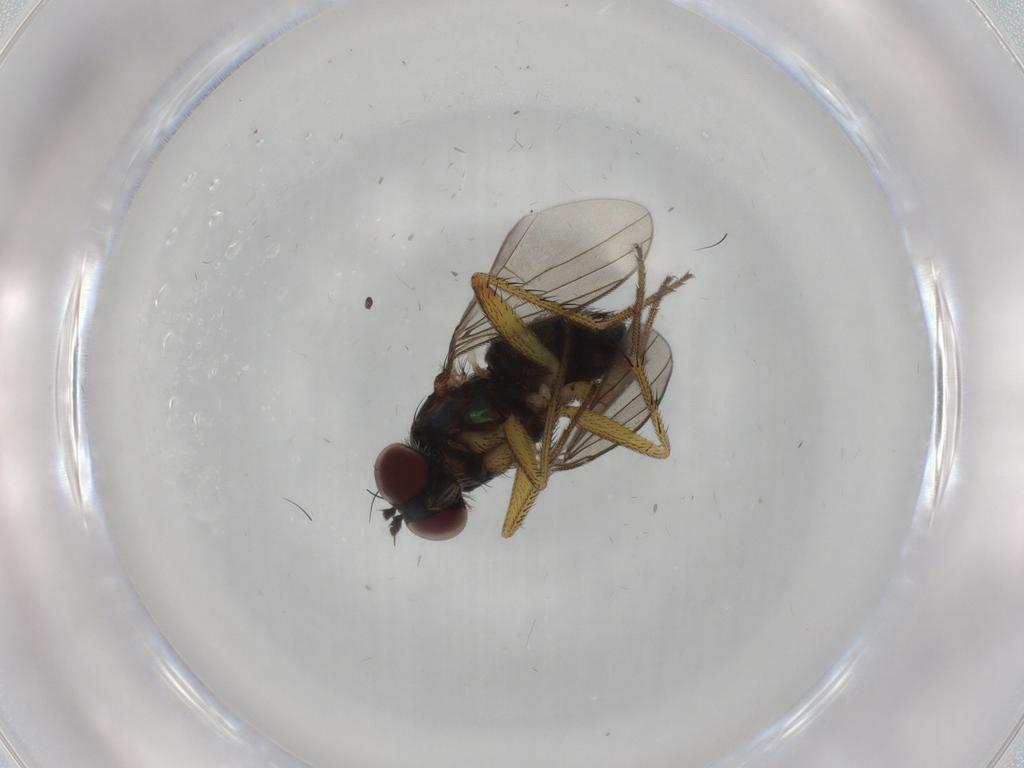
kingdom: Animalia
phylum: Arthropoda
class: Insecta
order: Diptera
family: Dolichopodidae
